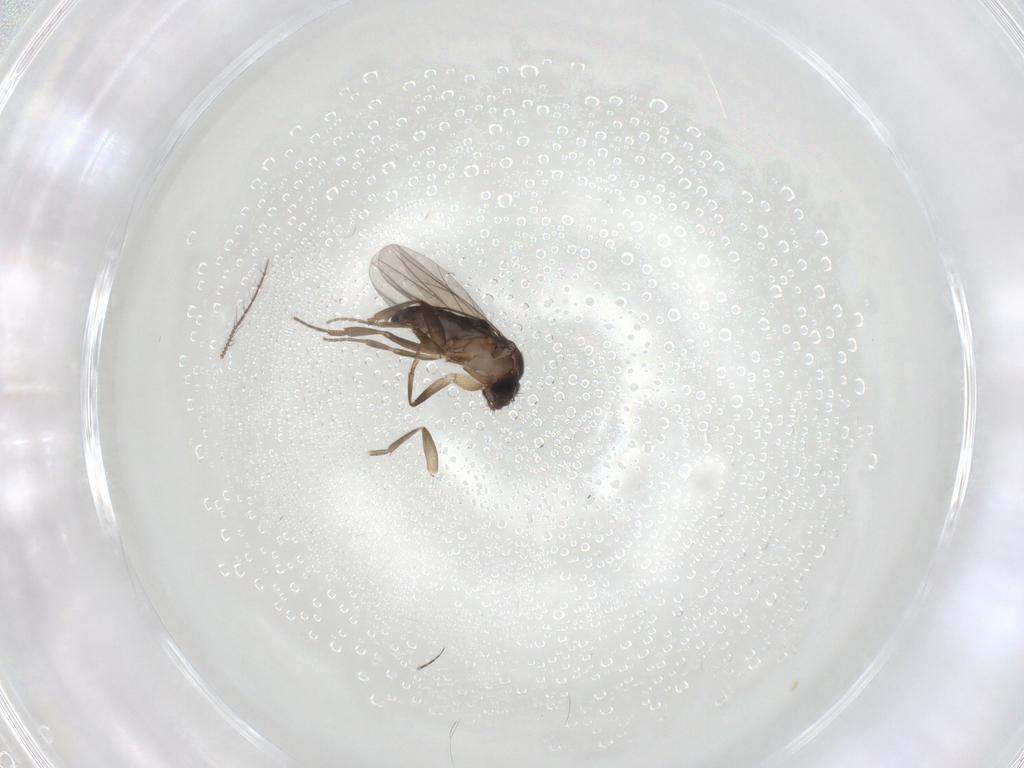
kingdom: Animalia
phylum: Arthropoda
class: Insecta
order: Diptera
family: Phoridae
